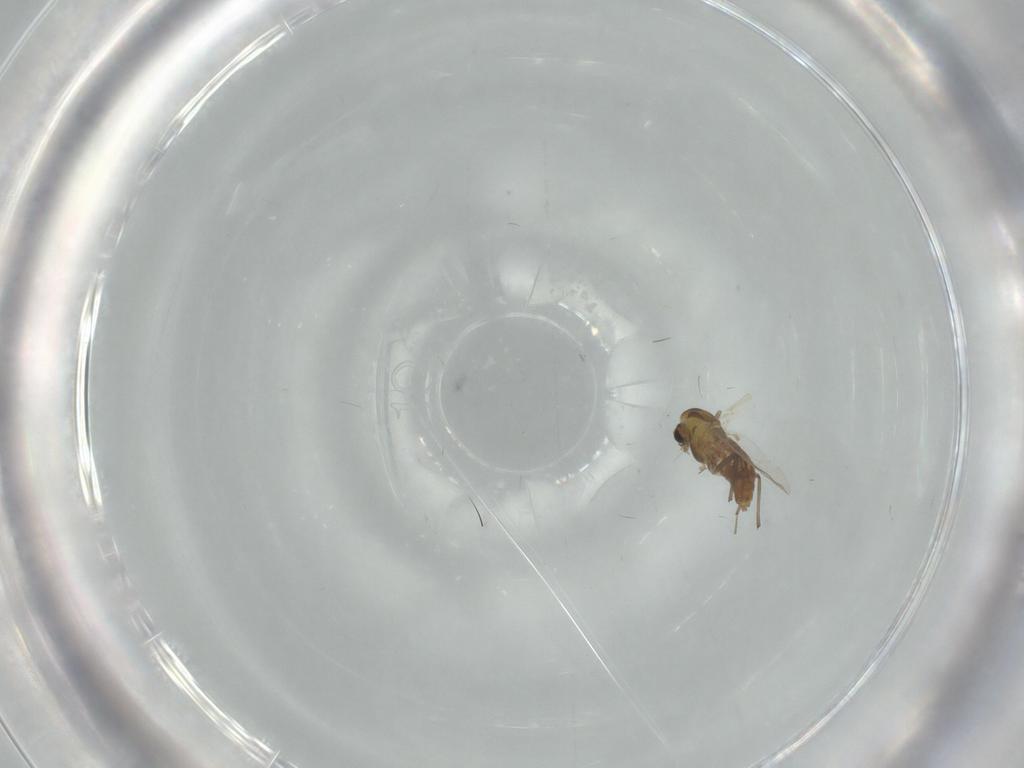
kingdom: Animalia
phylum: Arthropoda
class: Insecta
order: Diptera
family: Chironomidae
